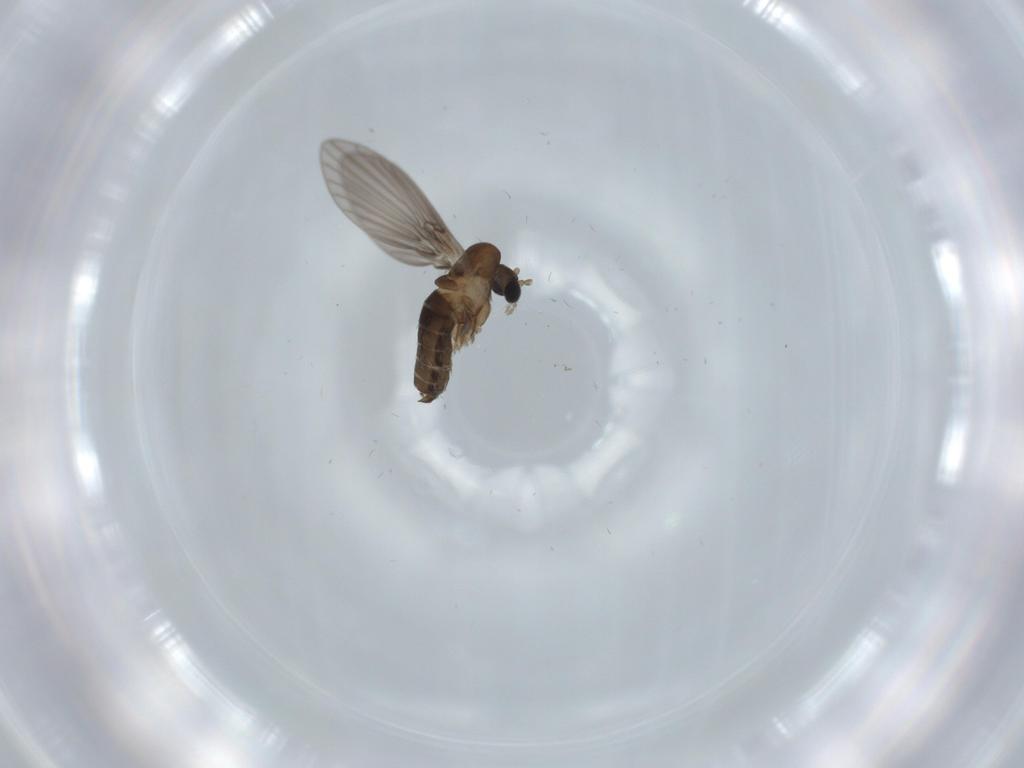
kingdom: Animalia
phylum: Arthropoda
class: Insecta
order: Diptera
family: Psychodidae
